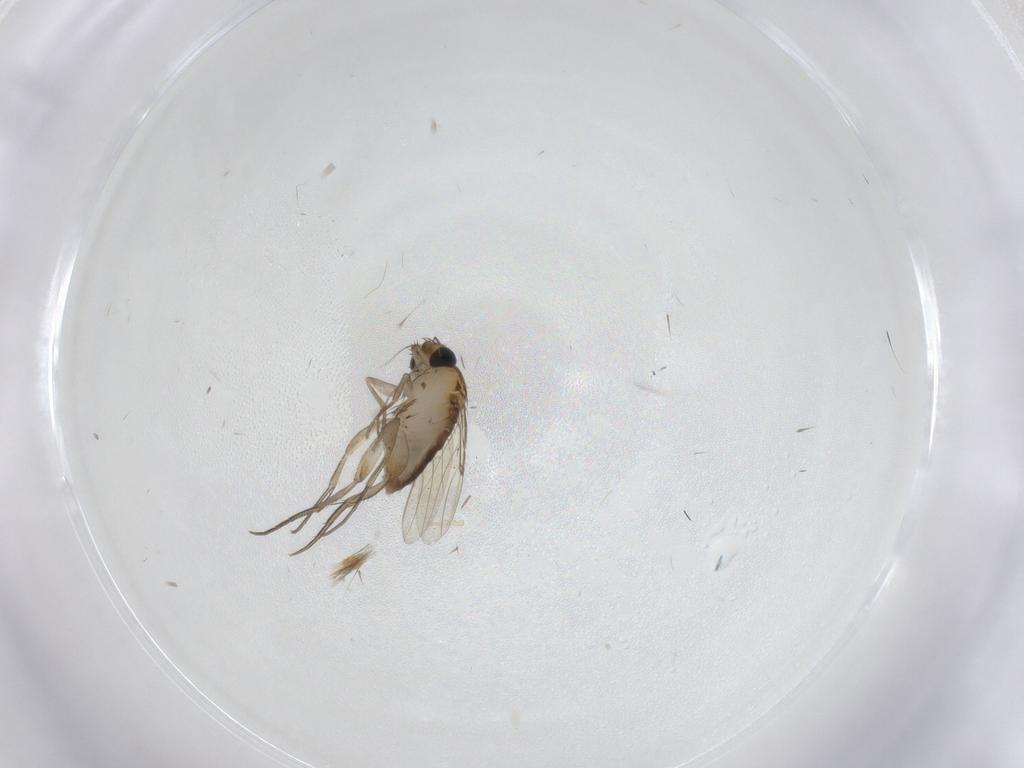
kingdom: Animalia
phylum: Arthropoda
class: Insecta
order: Diptera
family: Phoridae
